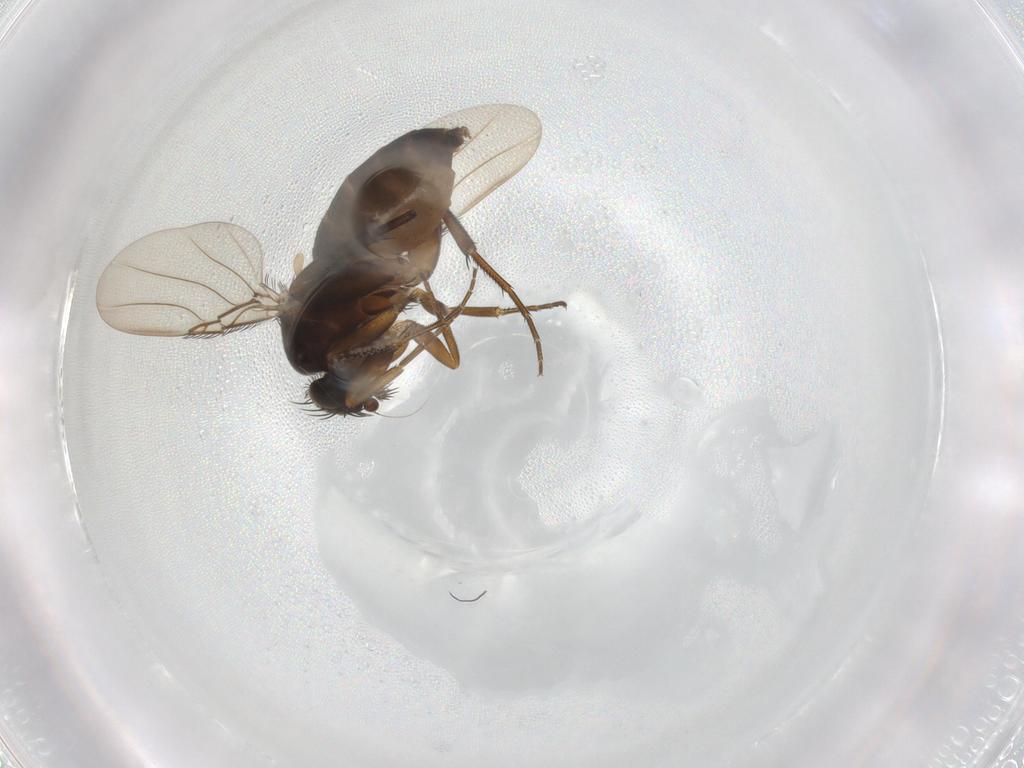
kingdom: Animalia
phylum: Arthropoda
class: Insecta
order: Diptera
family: Phoridae
